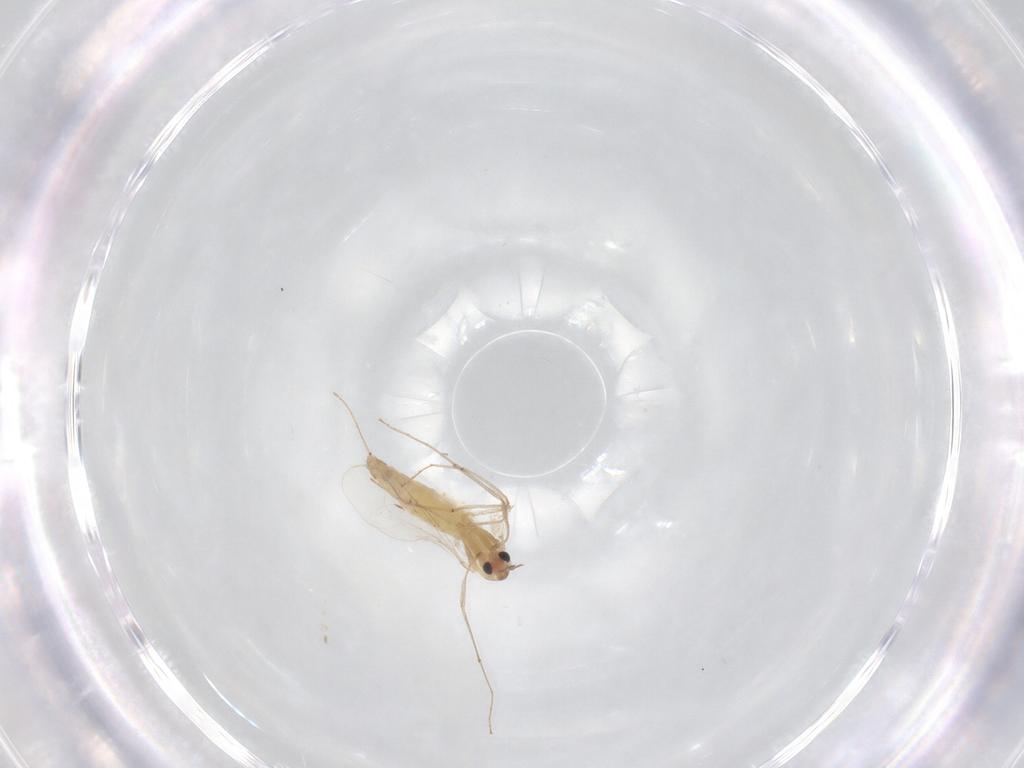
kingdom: Animalia
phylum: Arthropoda
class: Insecta
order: Diptera
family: Chironomidae
